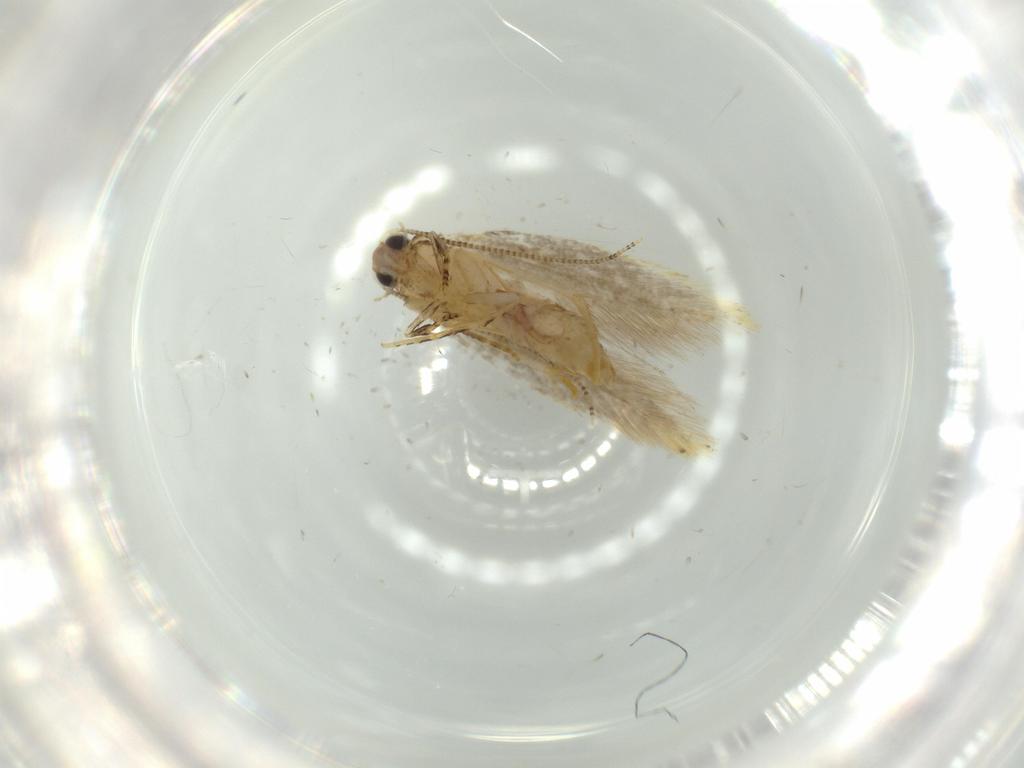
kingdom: Animalia
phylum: Arthropoda
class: Insecta
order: Lepidoptera
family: Tineidae
